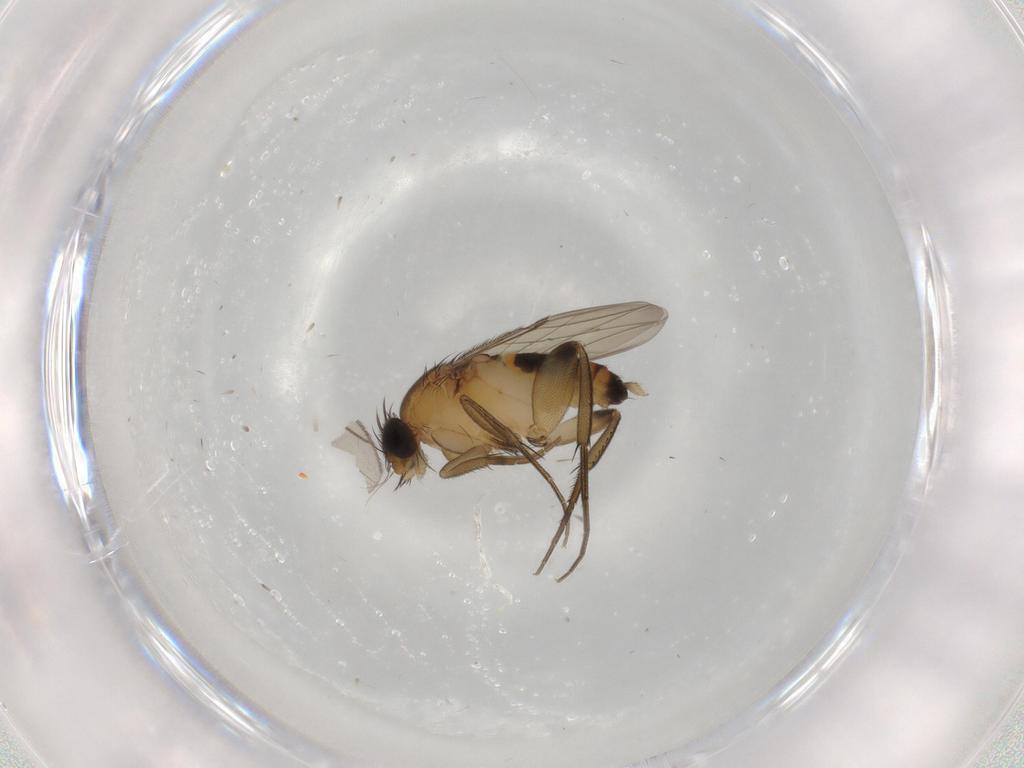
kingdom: Animalia
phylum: Arthropoda
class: Insecta
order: Diptera
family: Phoridae
